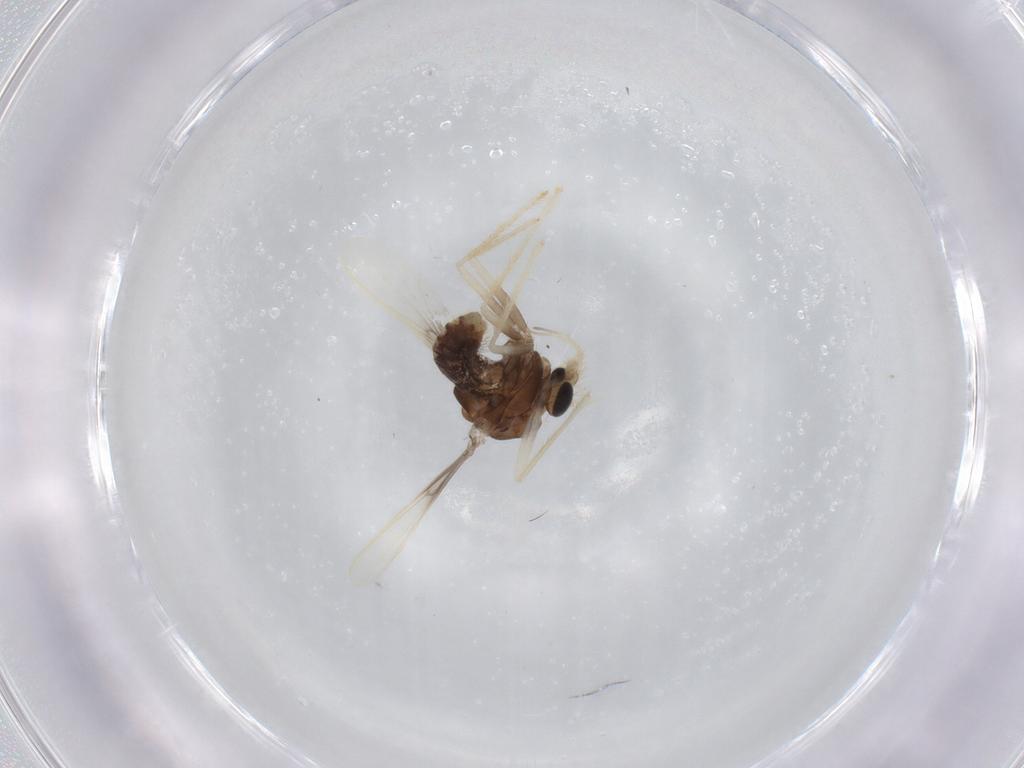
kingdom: Animalia
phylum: Arthropoda
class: Insecta
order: Diptera
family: Chironomidae
